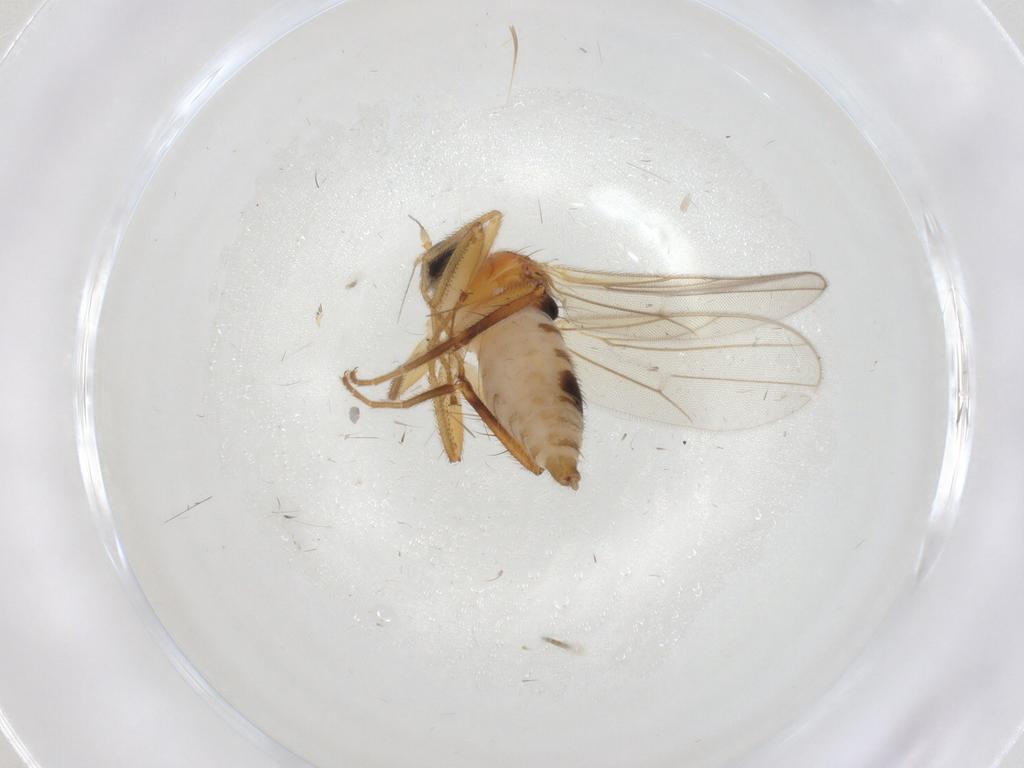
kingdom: Animalia
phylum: Arthropoda
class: Insecta
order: Diptera
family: Hybotidae
